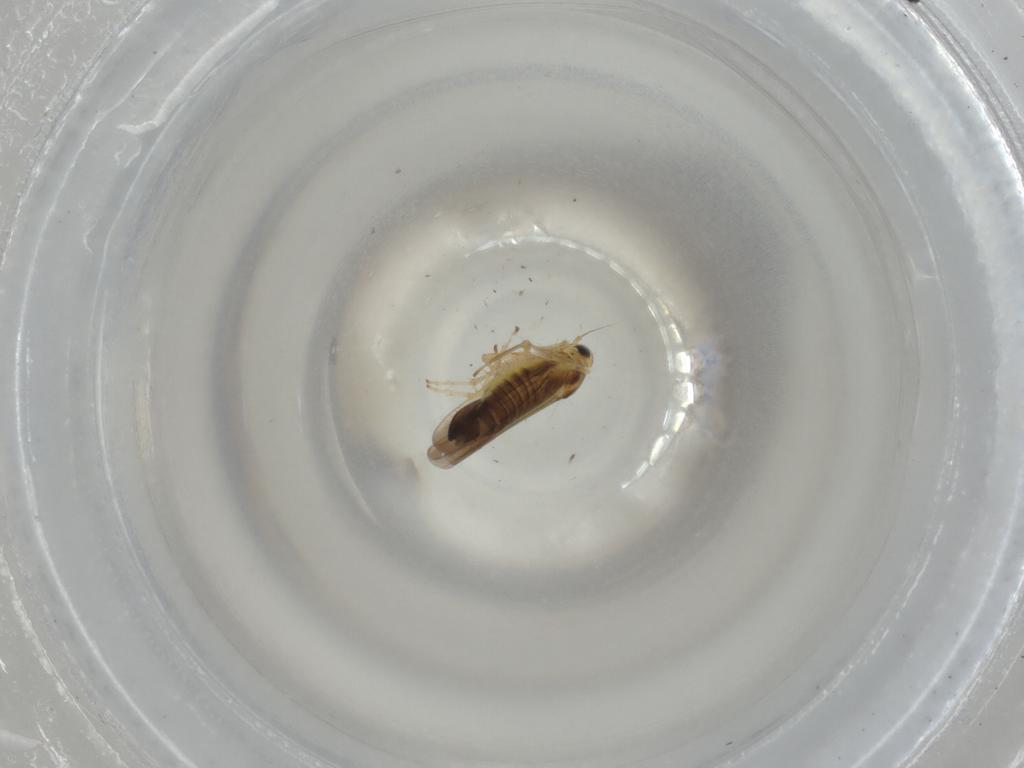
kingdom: Animalia
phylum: Arthropoda
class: Insecta
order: Hemiptera
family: Cicadellidae
